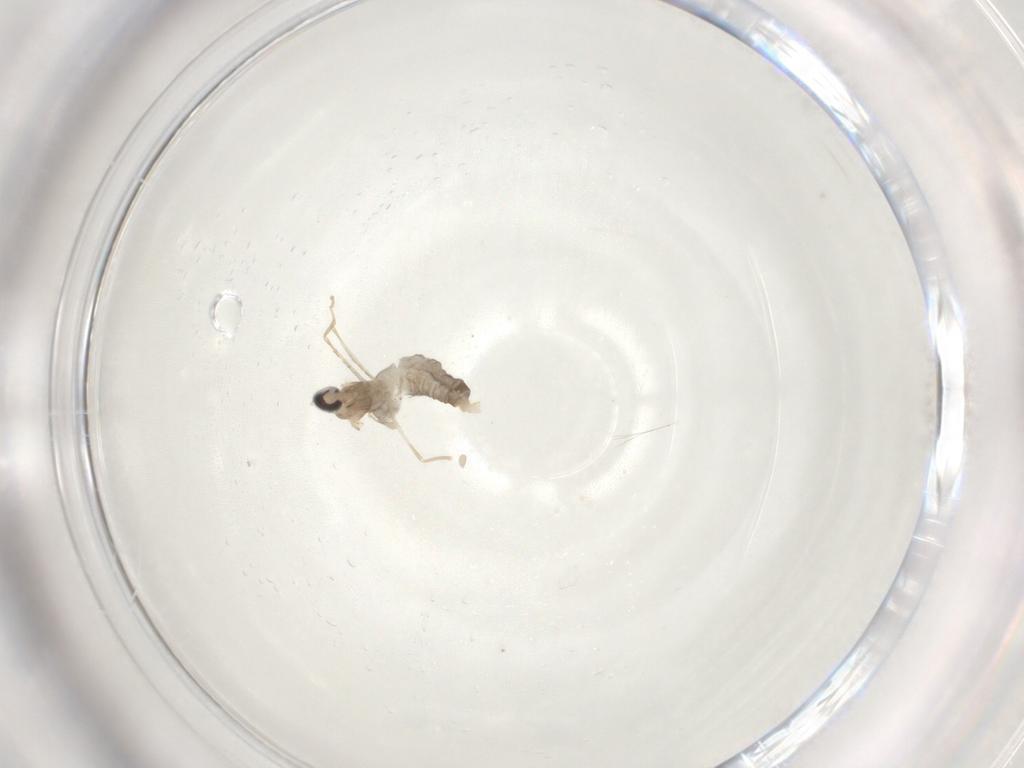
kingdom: Animalia
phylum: Arthropoda
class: Insecta
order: Diptera
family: Cecidomyiidae
